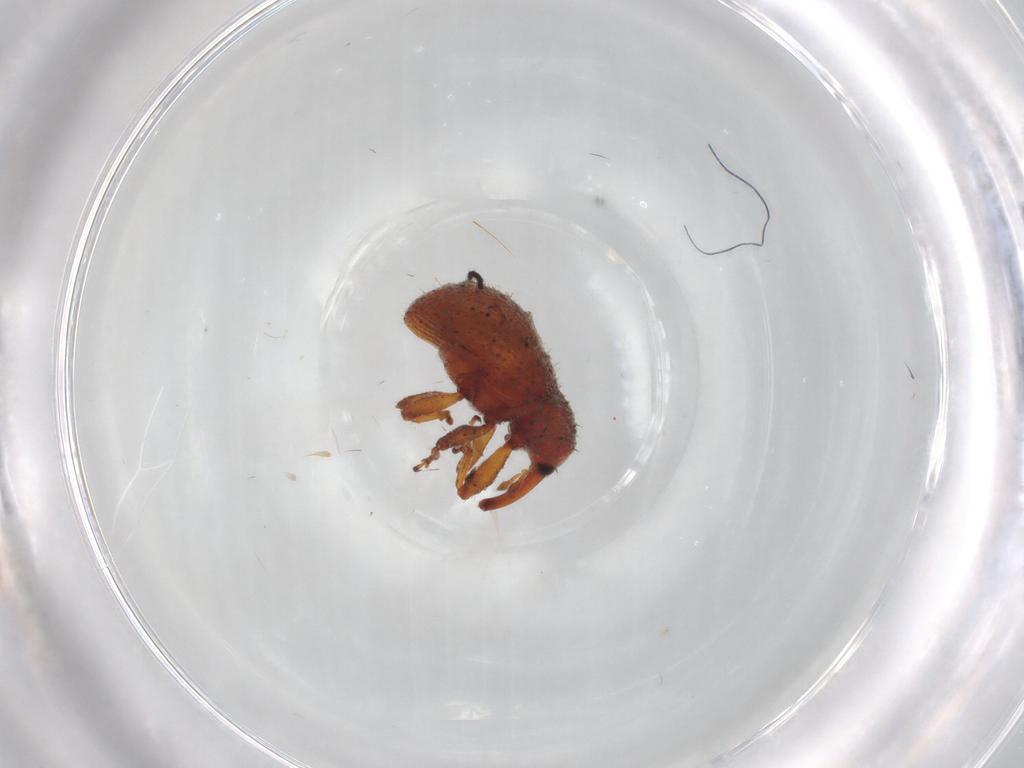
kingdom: Animalia
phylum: Arthropoda
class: Insecta
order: Coleoptera
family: Curculionidae
